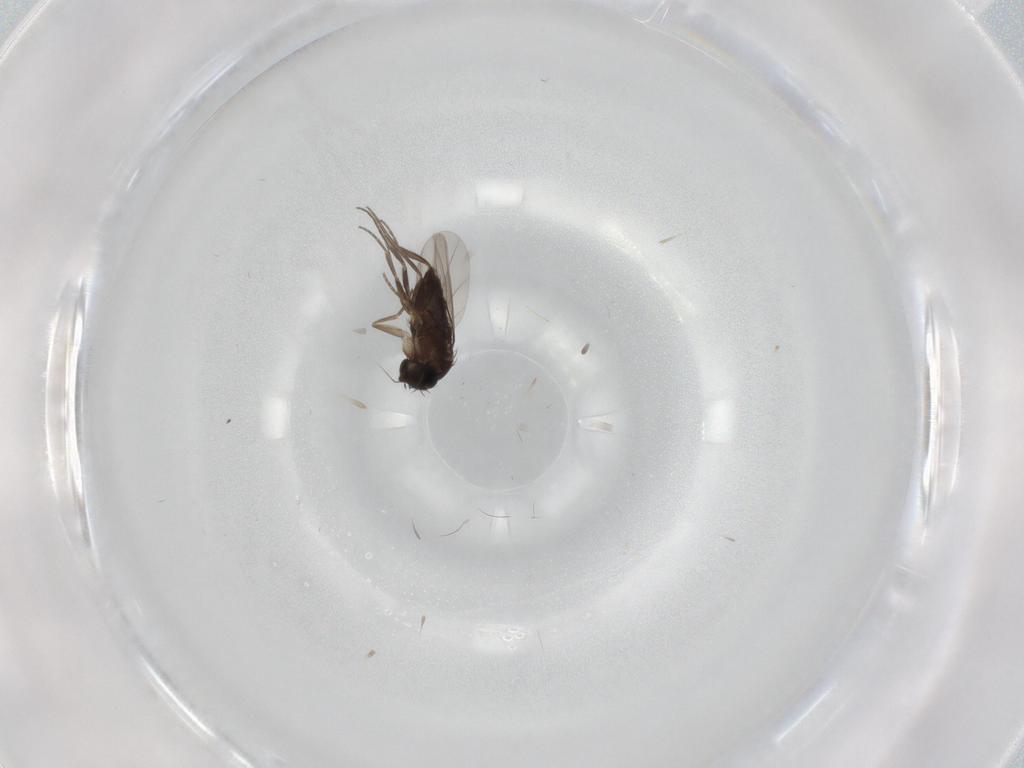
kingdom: Animalia
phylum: Arthropoda
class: Insecta
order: Diptera
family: Phoridae
